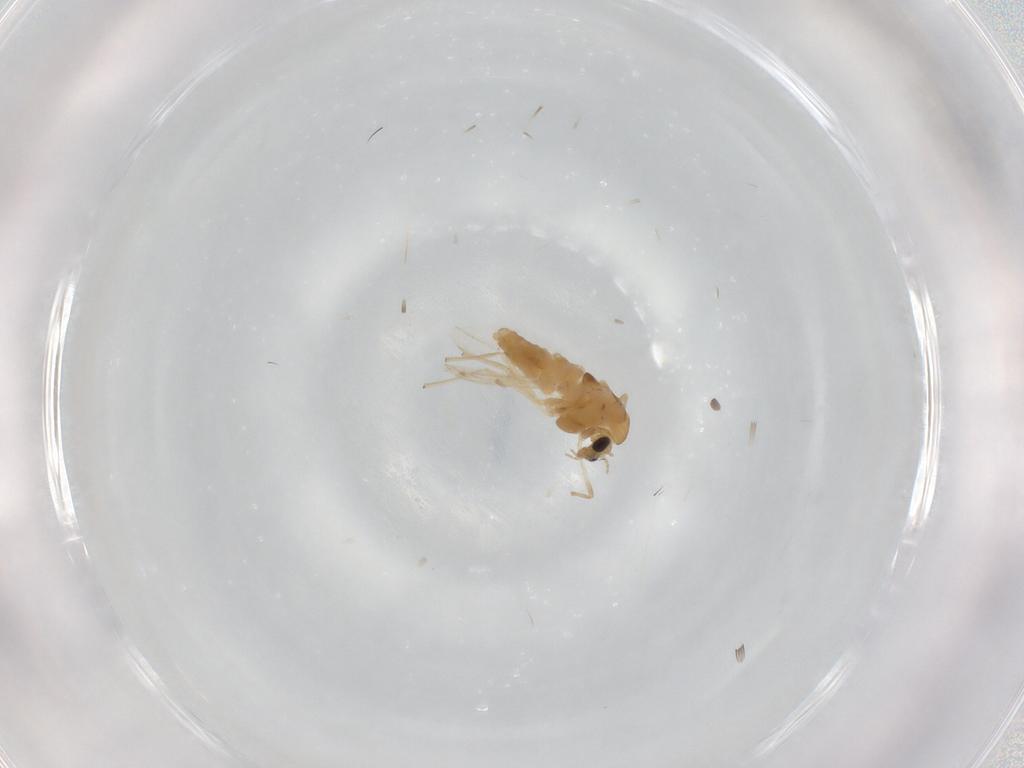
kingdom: Animalia
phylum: Arthropoda
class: Insecta
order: Diptera
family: Chironomidae
